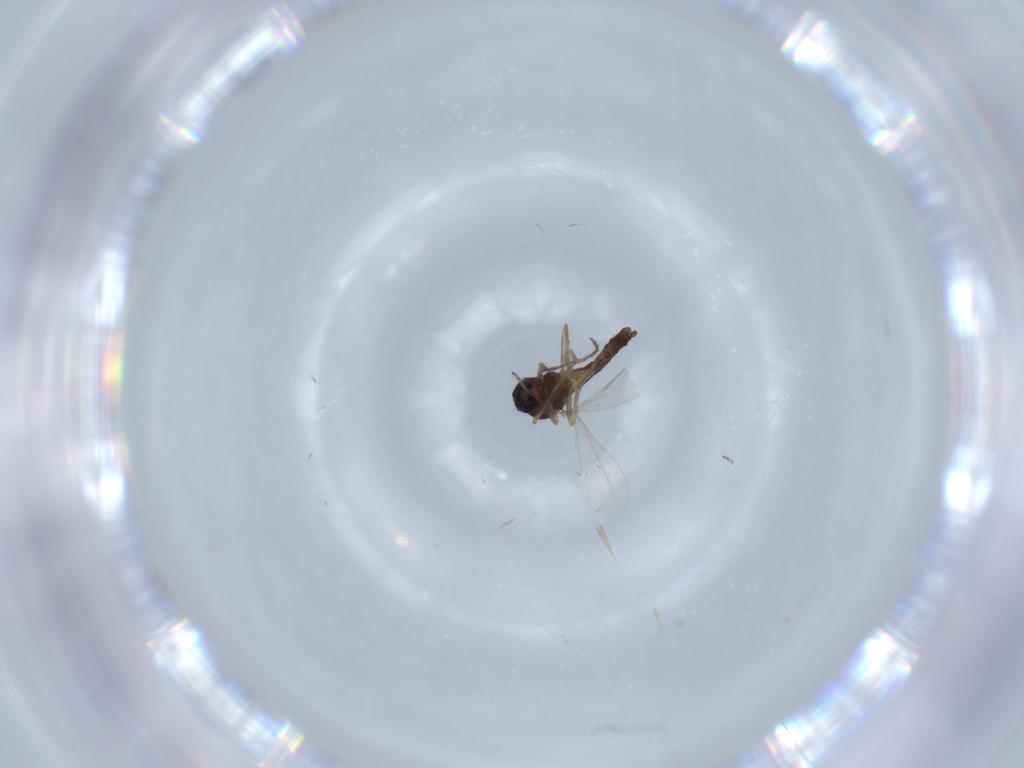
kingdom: Animalia
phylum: Arthropoda
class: Insecta
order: Diptera
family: Ceratopogonidae
